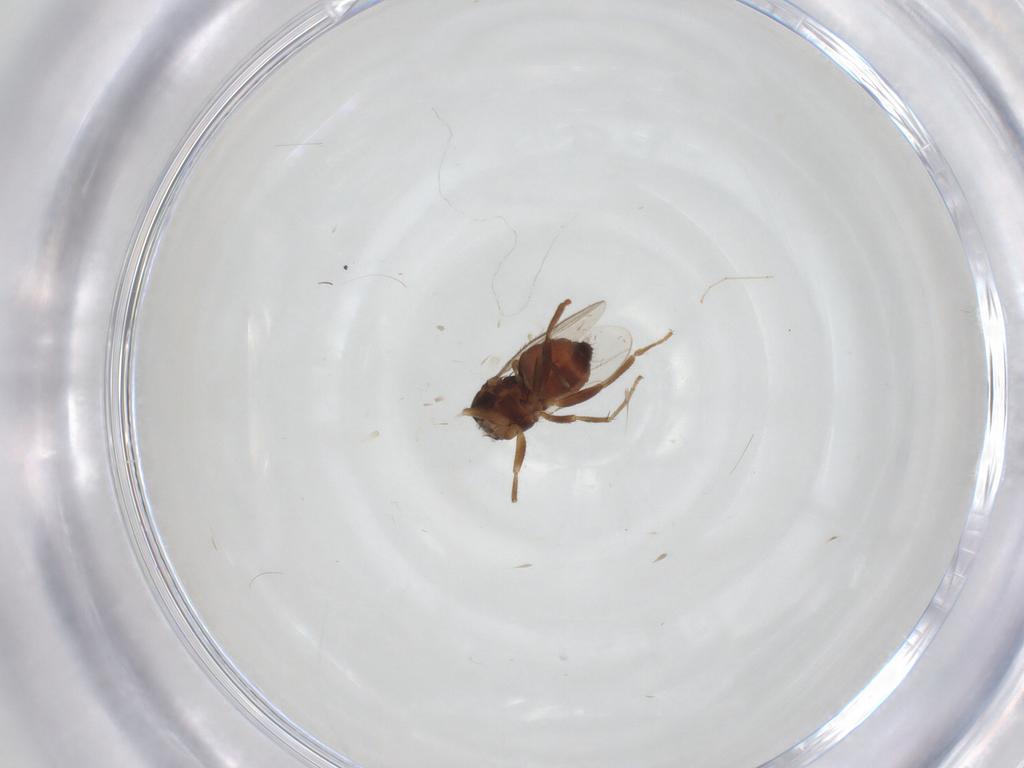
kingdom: Animalia
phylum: Arthropoda
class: Insecta
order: Diptera
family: Sphaeroceridae
